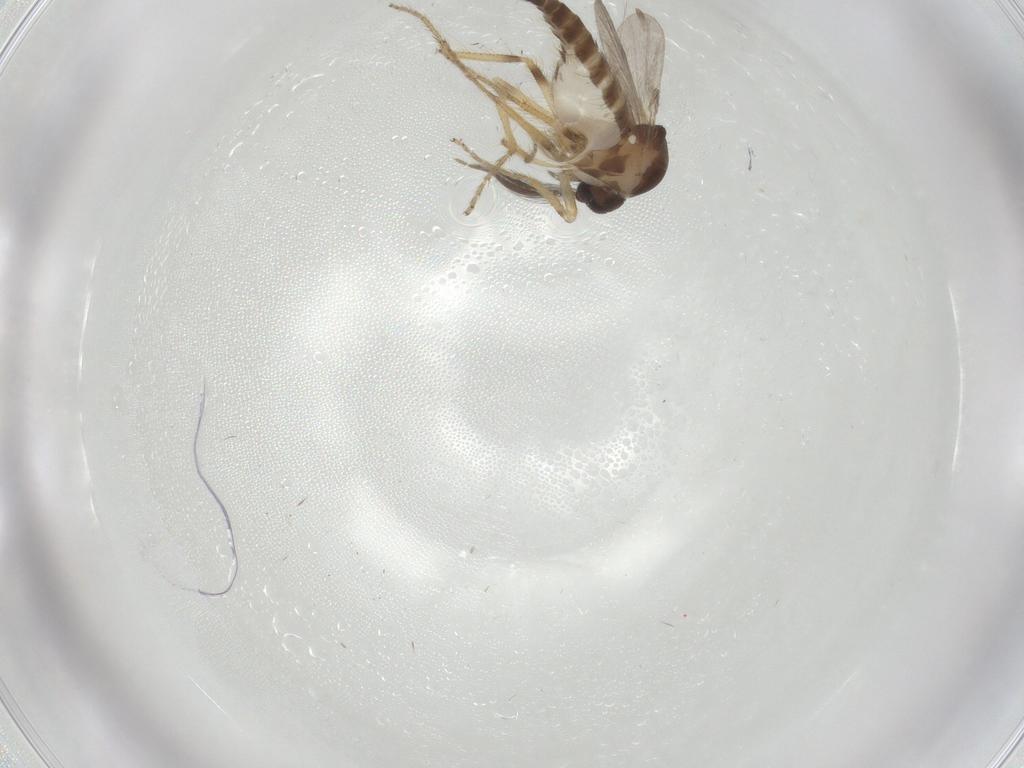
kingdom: Animalia
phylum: Arthropoda
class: Insecta
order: Diptera
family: Ceratopogonidae
